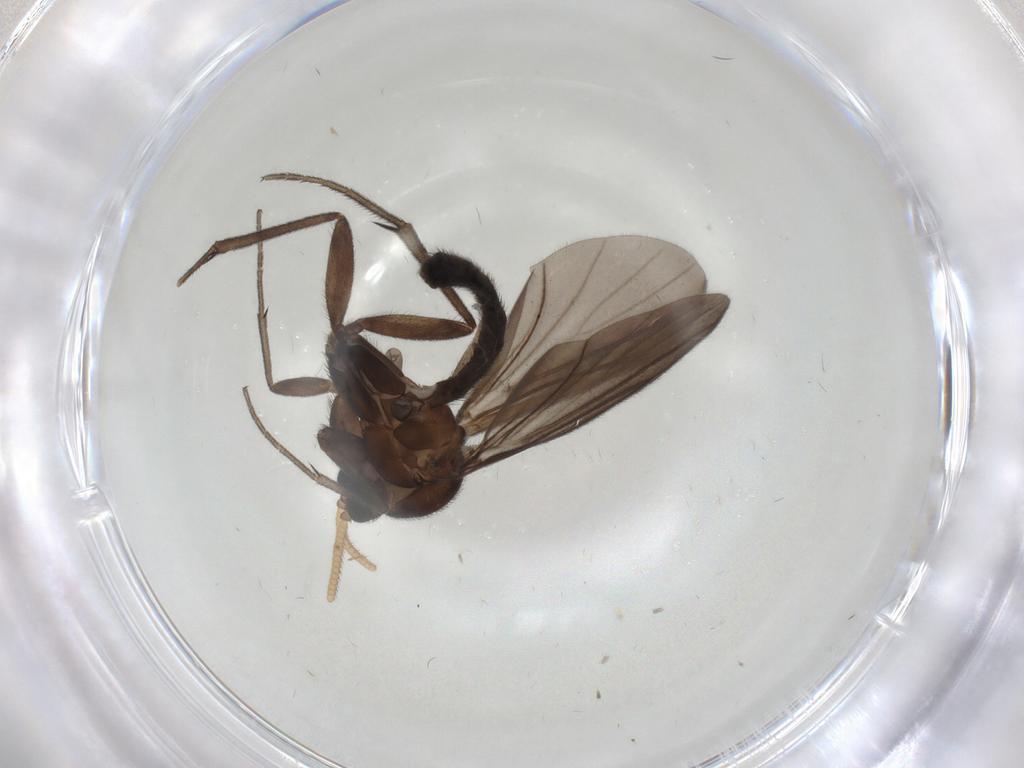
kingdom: Animalia
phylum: Arthropoda
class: Insecta
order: Diptera
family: Mycetophilidae
